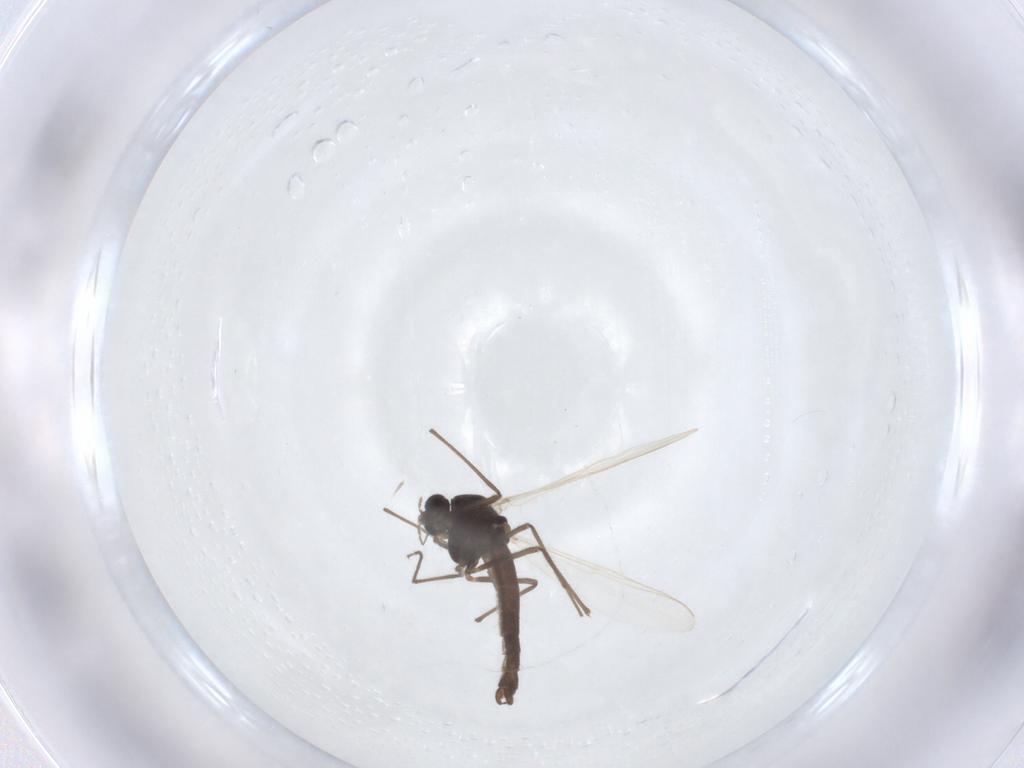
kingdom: Animalia
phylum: Arthropoda
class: Insecta
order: Diptera
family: Chironomidae
